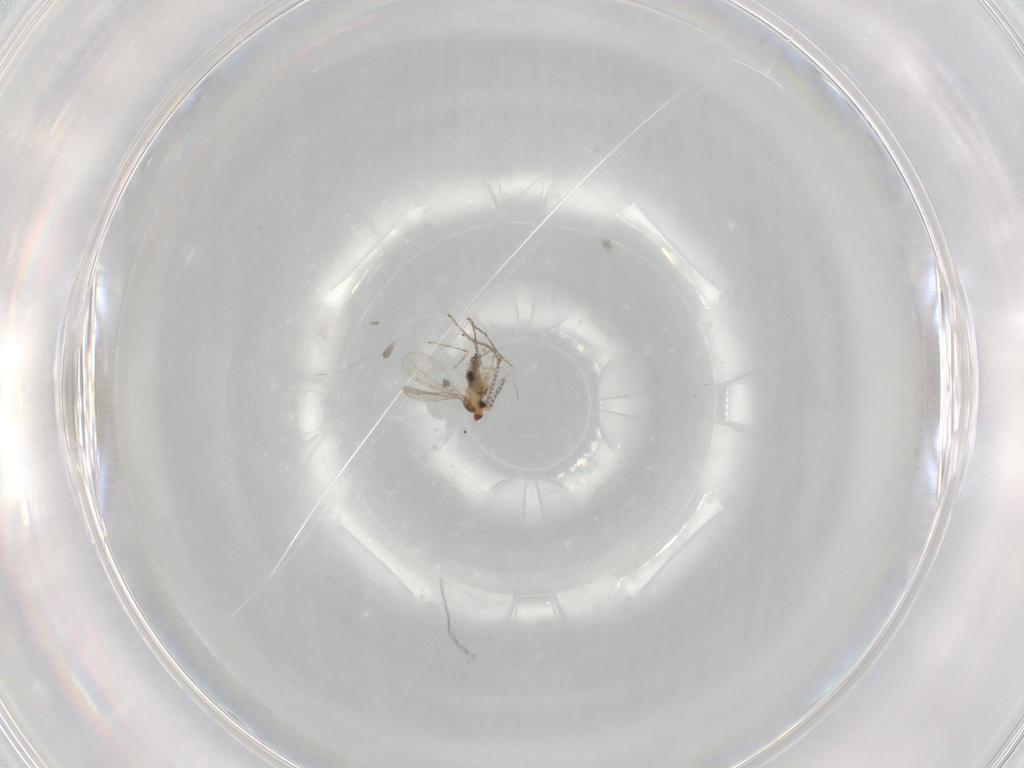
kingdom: Animalia
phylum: Arthropoda
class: Insecta
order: Diptera
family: Cecidomyiidae
